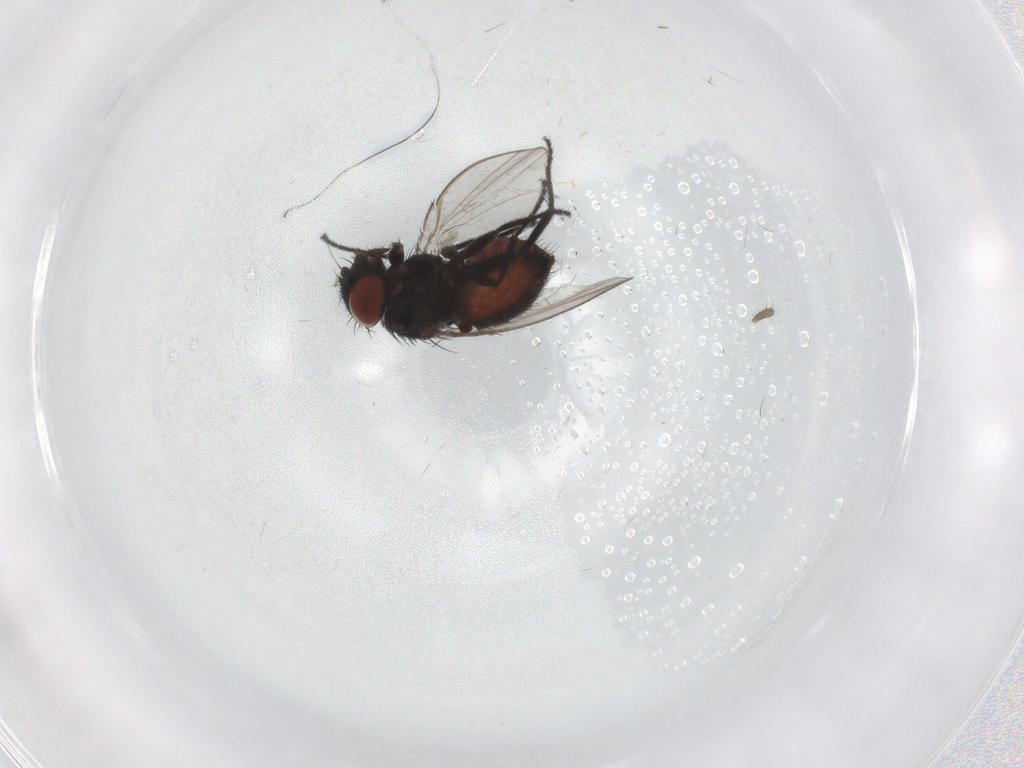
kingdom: Animalia
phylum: Arthropoda
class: Insecta
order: Diptera
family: Milichiidae
